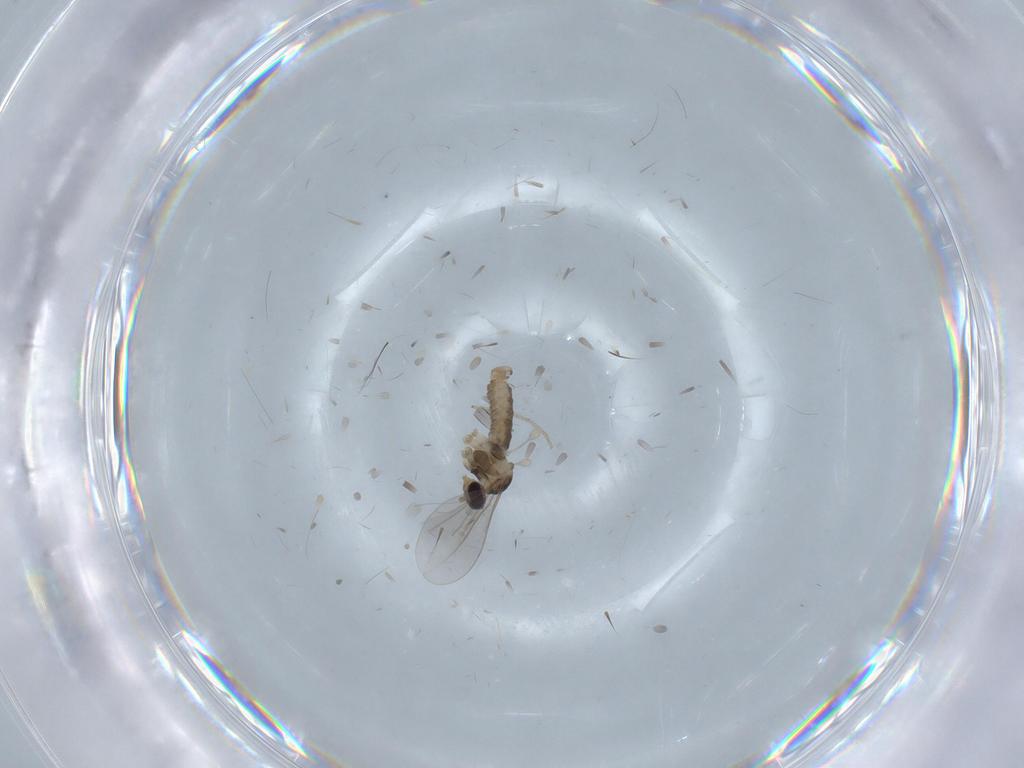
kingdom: Animalia
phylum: Arthropoda
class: Insecta
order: Diptera
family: Cecidomyiidae
